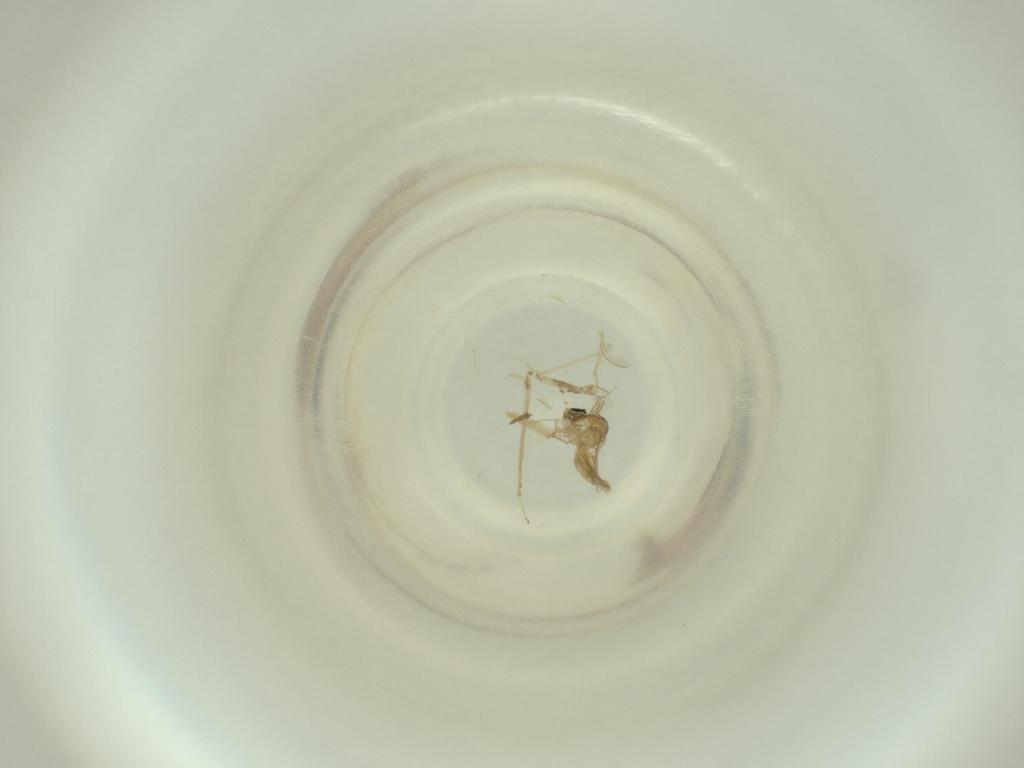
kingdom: Animalia
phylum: Arthropoda
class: Insecta
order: Diptera
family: Cecidomyiidae
